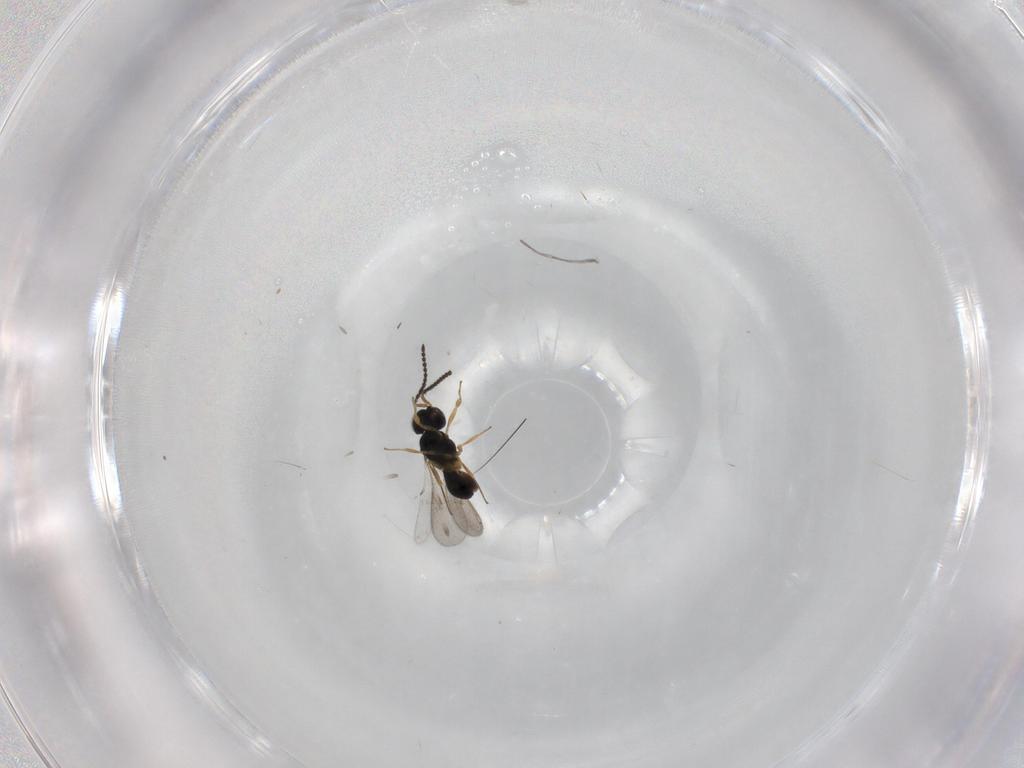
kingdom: Animalia
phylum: Arthropoda
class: Insecta
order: Hymenoptera
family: Scelionidae
